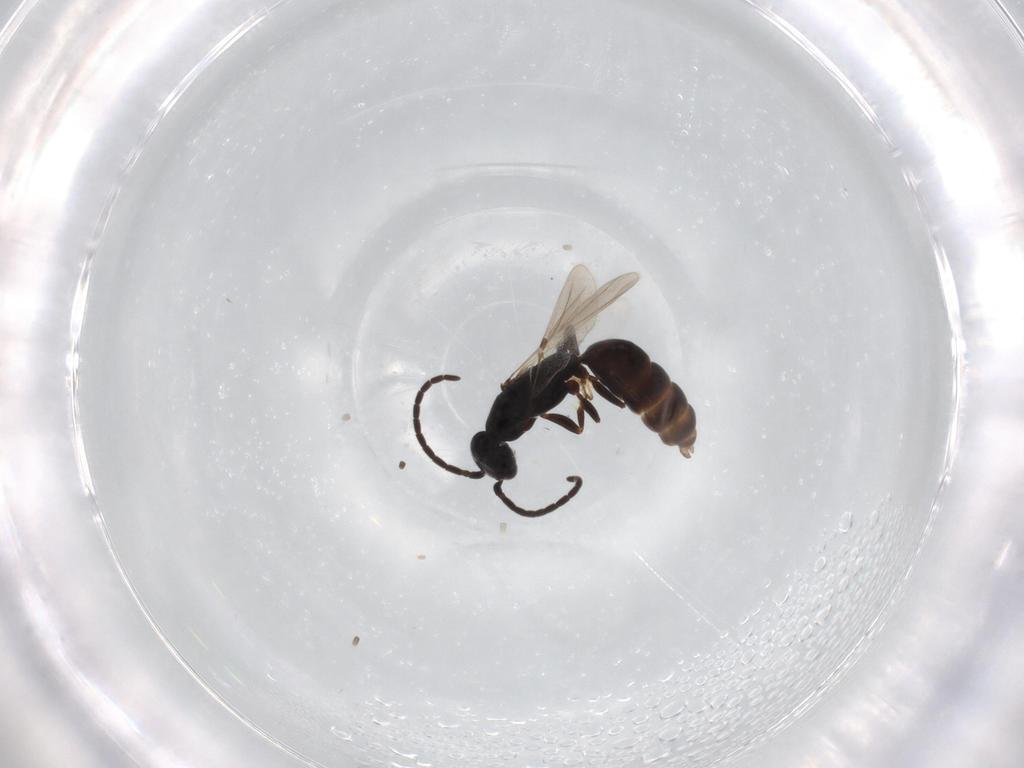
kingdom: Animalia
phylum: Arthropoda
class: Insecta
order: Hymenoptera
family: Bethylidae
